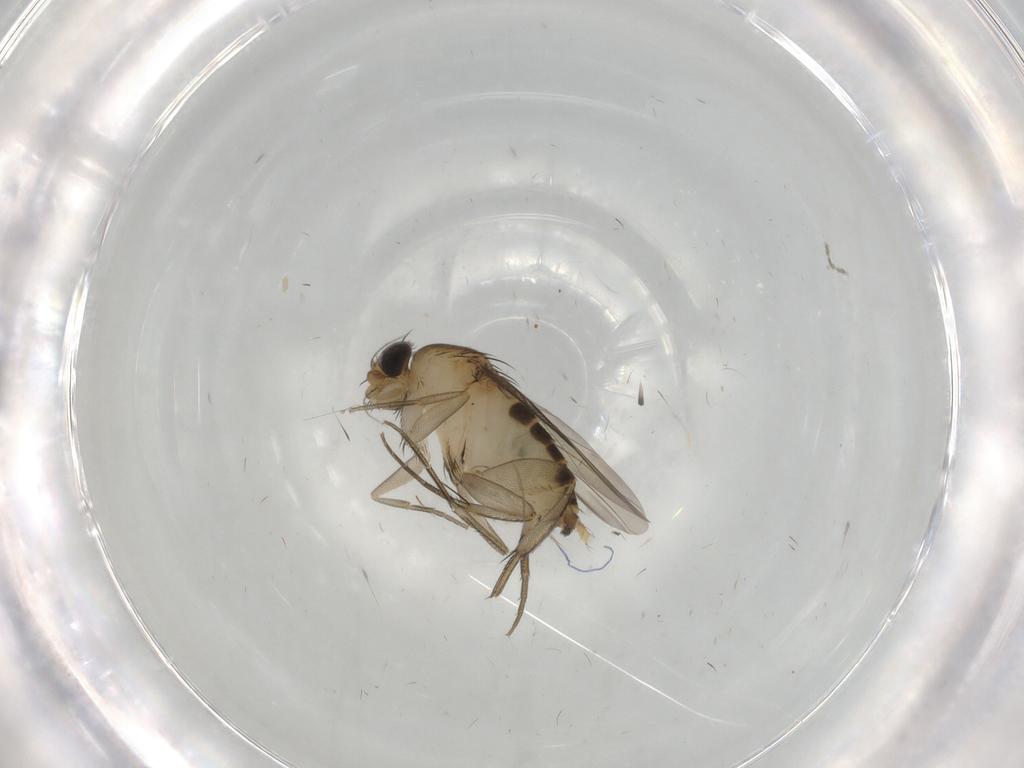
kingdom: Animalia
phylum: Arthropoda
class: Insecta
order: Diptera
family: Phoridae
